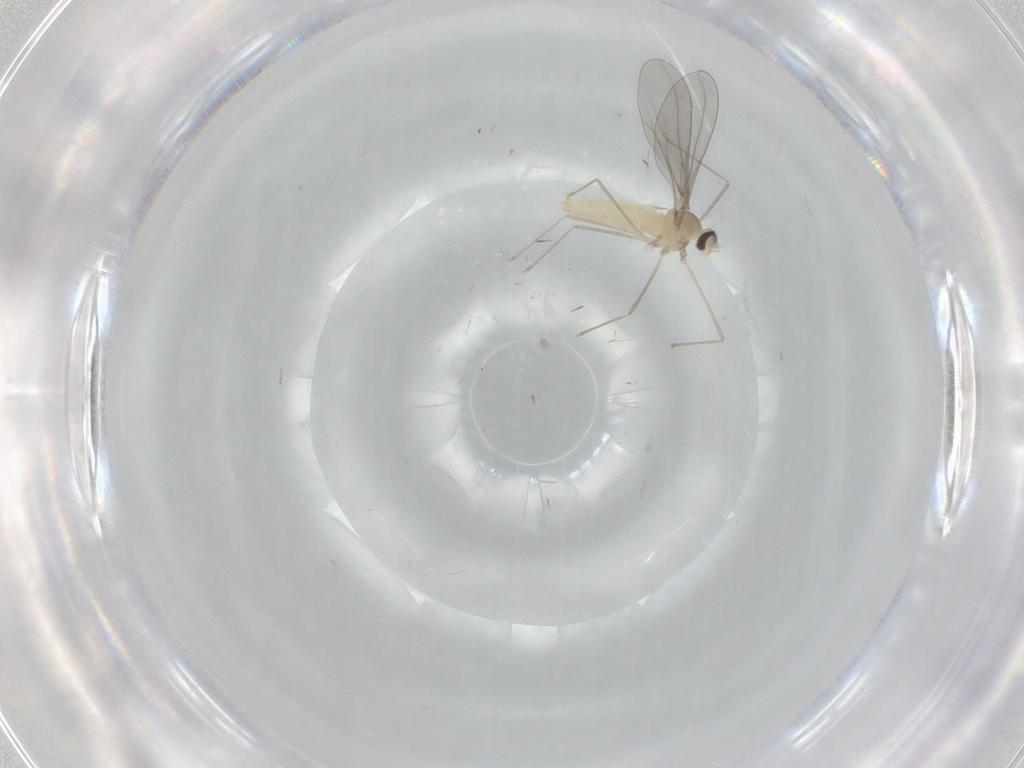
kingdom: Animalia
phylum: Arthropoda
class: Insecta
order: Diptera
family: Cecidomyiidae
